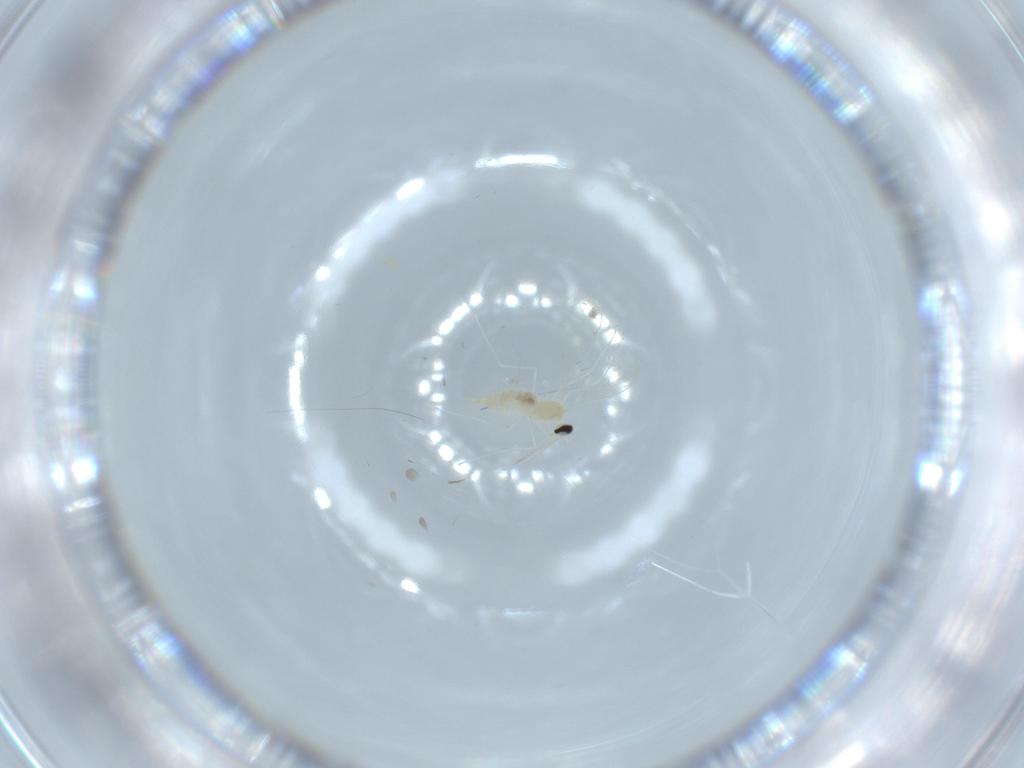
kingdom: Animalia
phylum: Arthropoda
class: Insecta
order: Diptera
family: Cecidomyiidae
